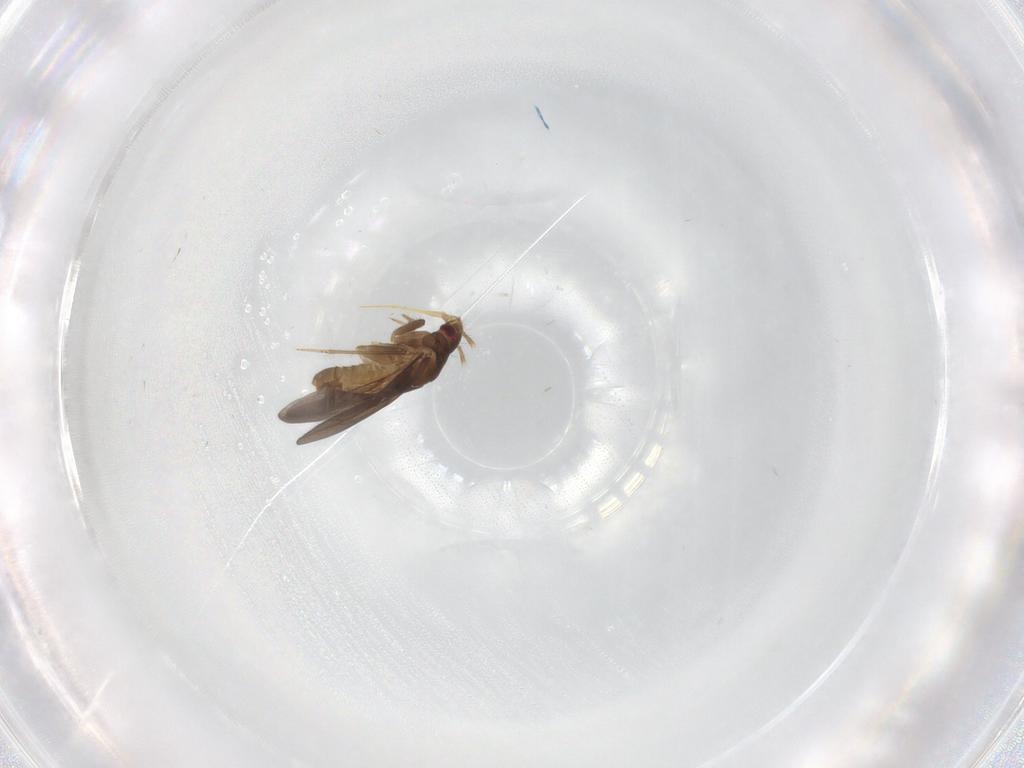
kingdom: Animalia
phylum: Arthropoda
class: Insecta
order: Hemiptera
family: Ceratocombidae
